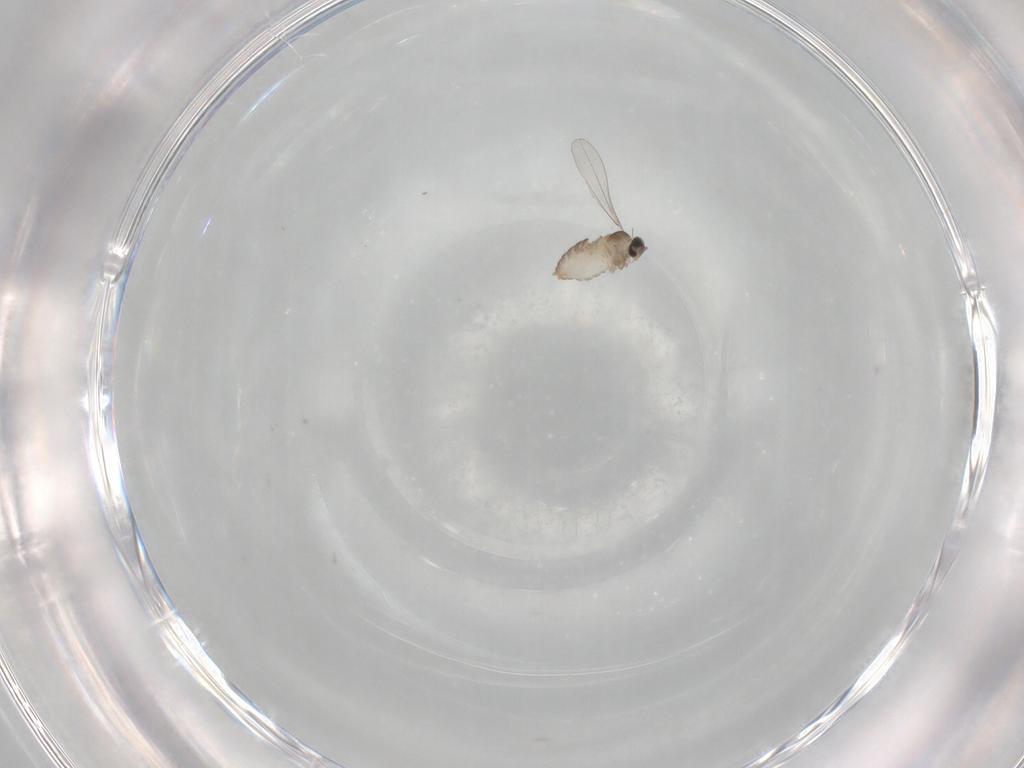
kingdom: Animalia
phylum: Arthropoda
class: Insecta
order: Diptera
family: Cecidomyiidae
